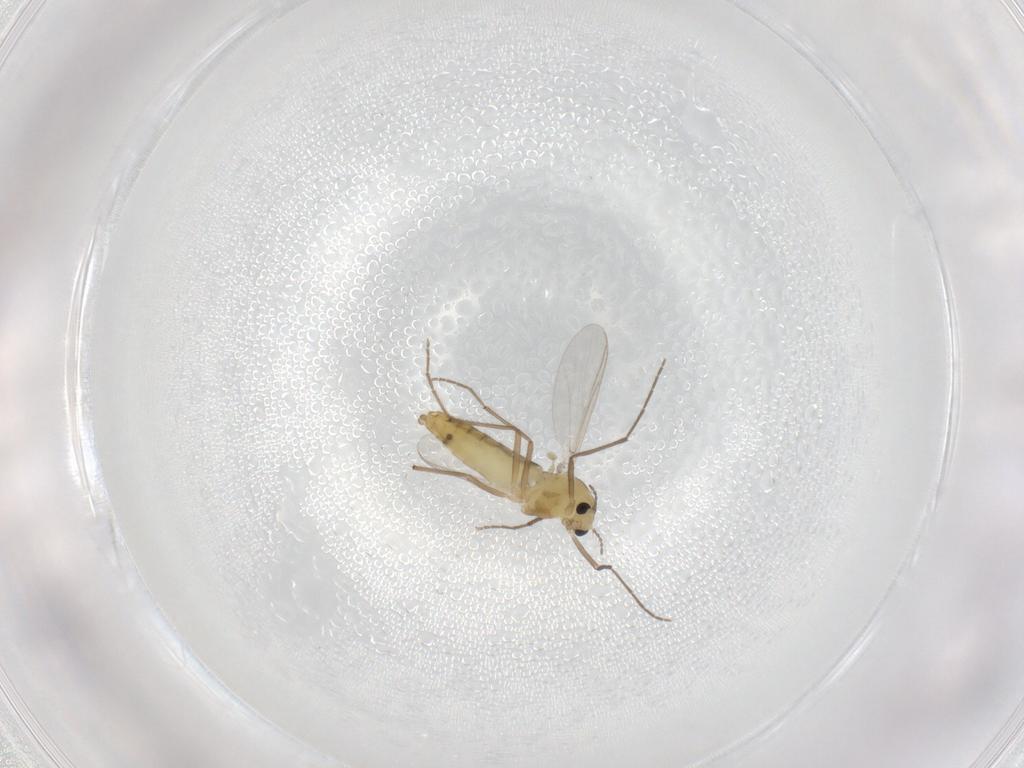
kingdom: Animalia
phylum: Arthropoda
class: Insecta
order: Diptera
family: Chironomidae
